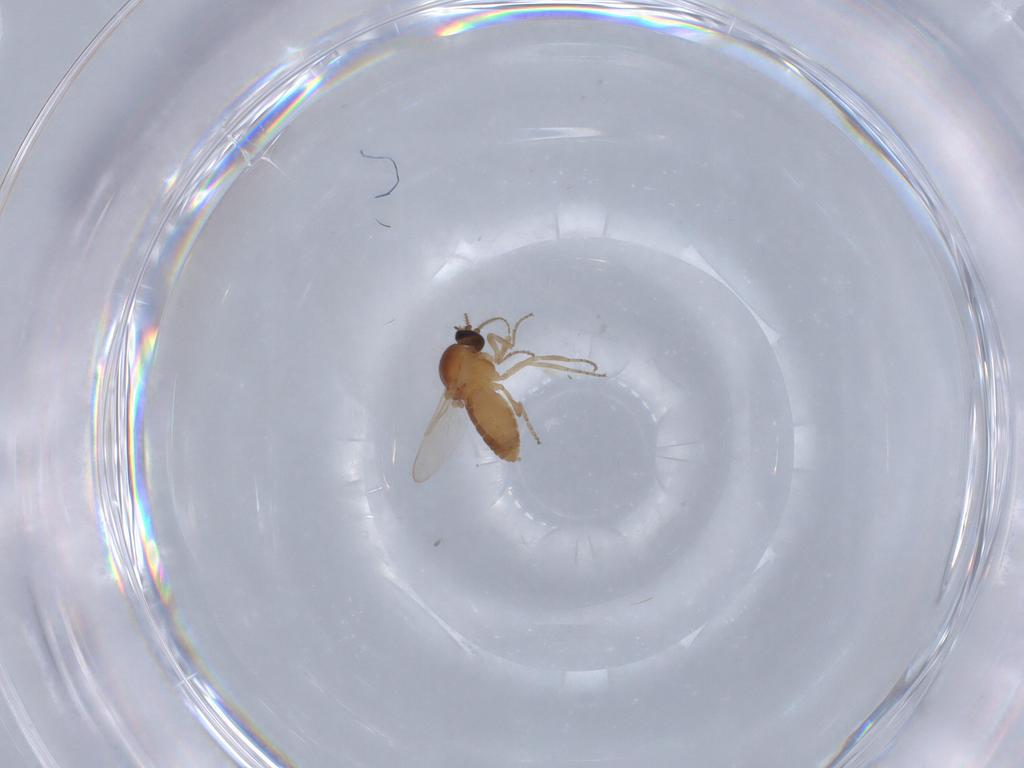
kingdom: Animalia
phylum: Arthropoda
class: Insecta
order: Diptera
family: Ceratopogonidae
